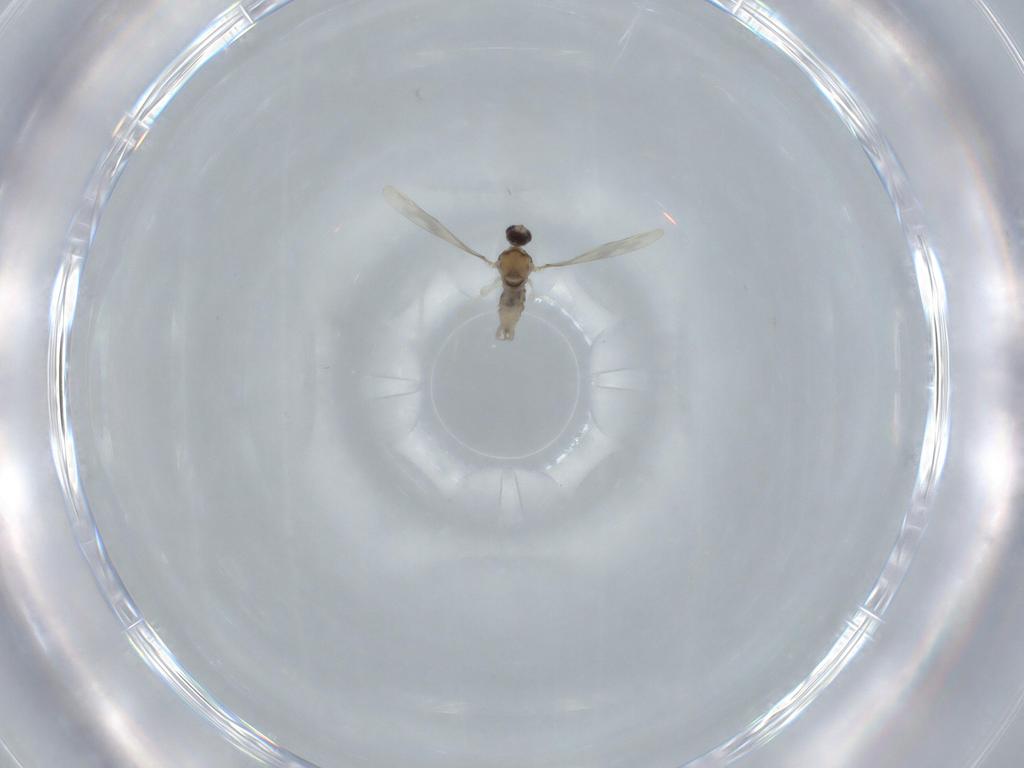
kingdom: Animalia
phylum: Arthropoda
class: Insecta
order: Diptera
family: Cecidomyiidae
